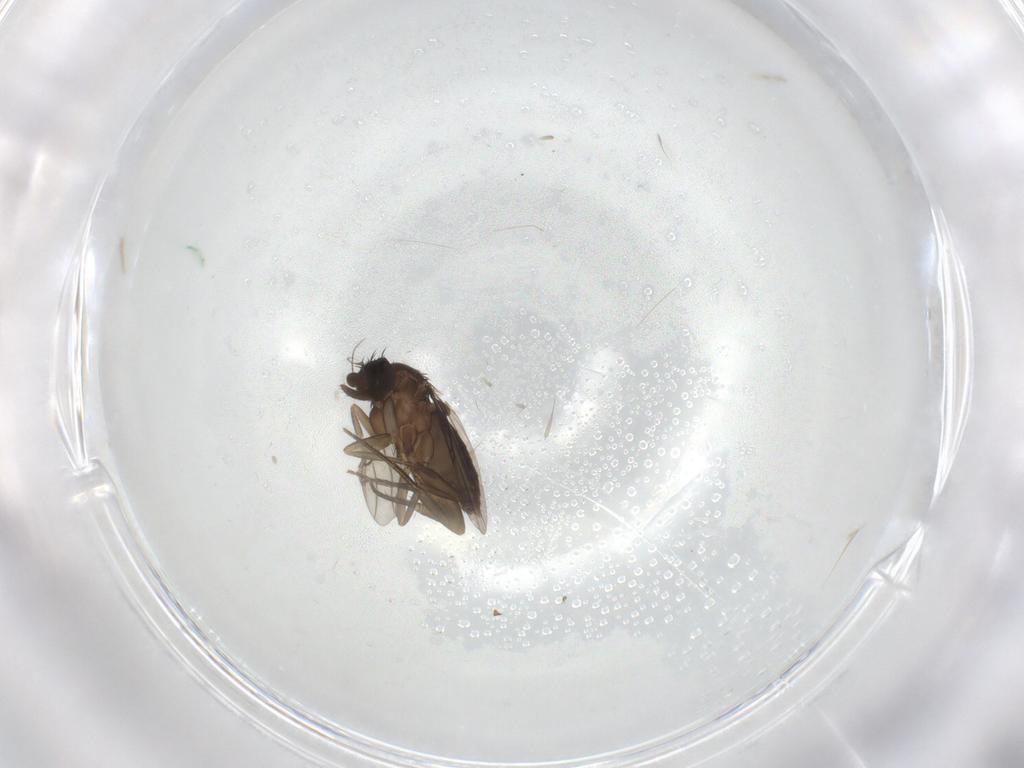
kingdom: Animalia
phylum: Arthropoda
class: Insecta
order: Diptera
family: Phoridae
